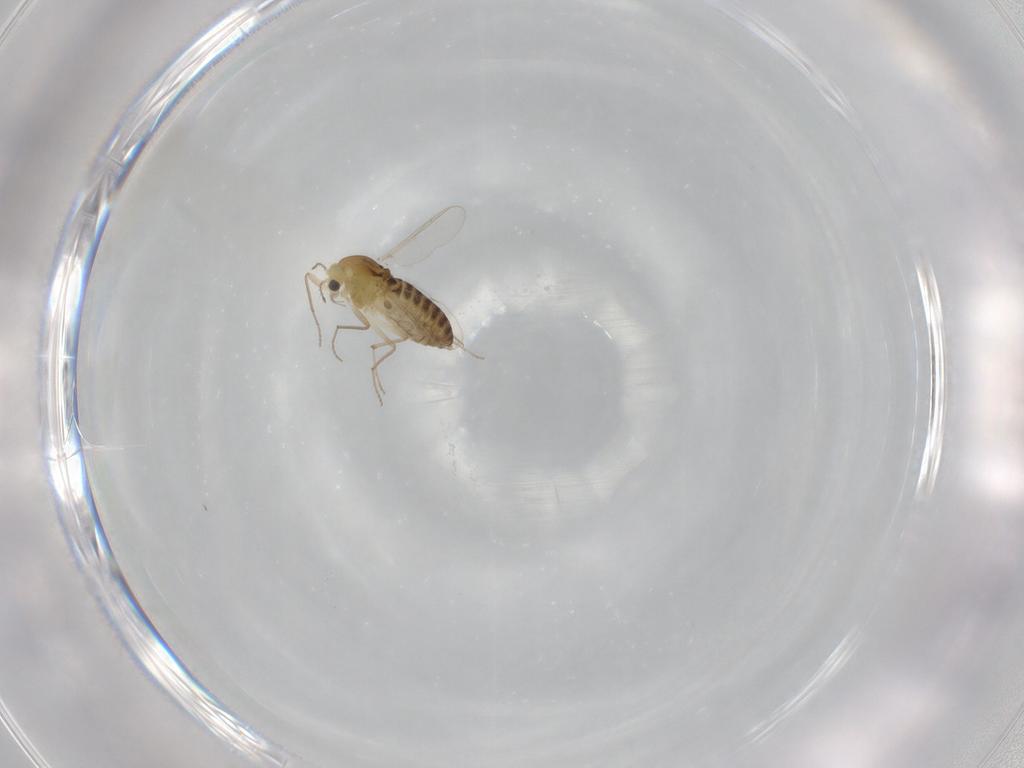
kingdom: Animalia
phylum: Arthropoda
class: Insecta
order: Diptera
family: Chironomidae
